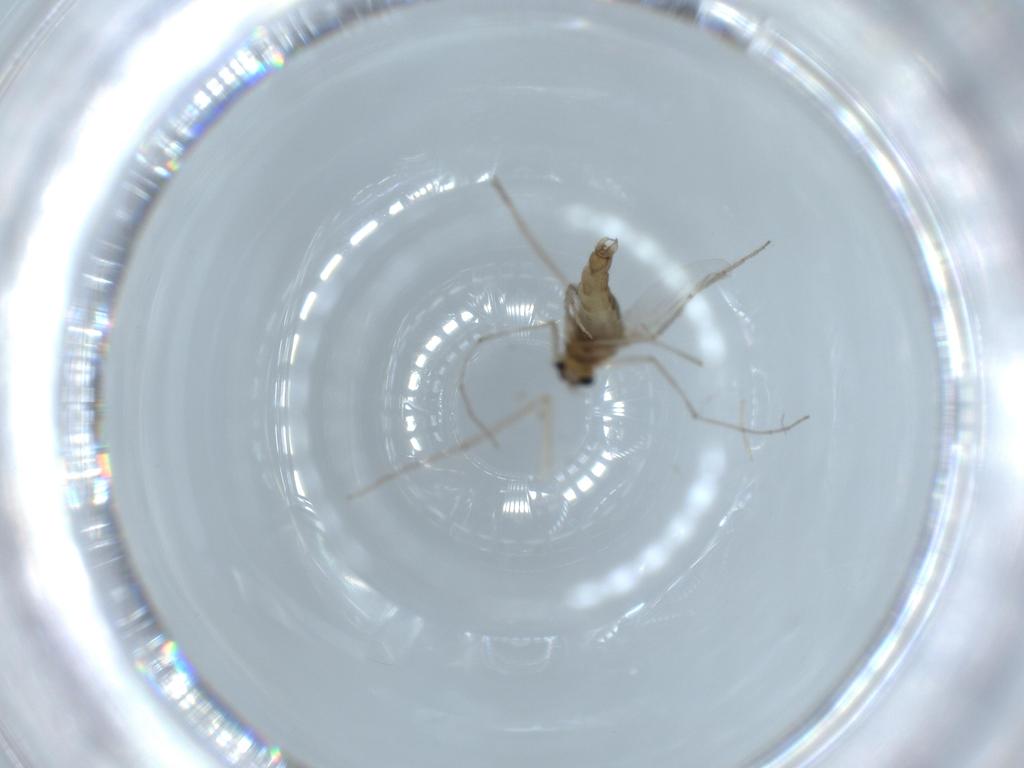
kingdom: Animalia
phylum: Arthropoda
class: Insecta
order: Diptera
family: Chironomidae
